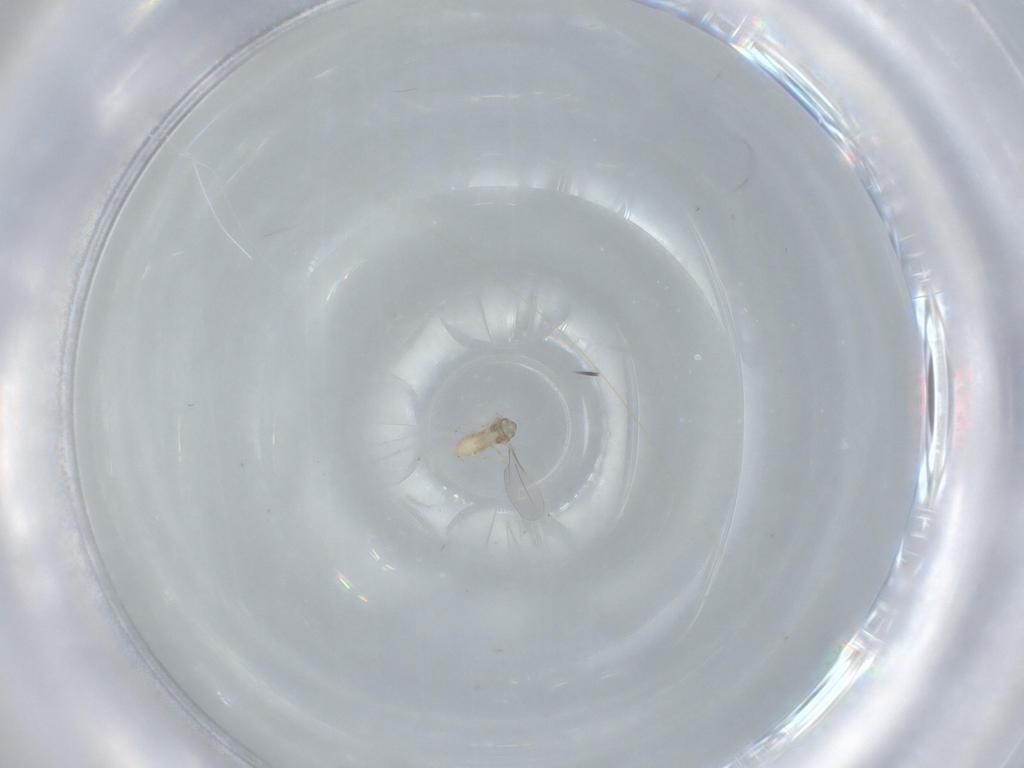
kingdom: Animalia
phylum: Arthropoda
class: Insecta
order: Diptera
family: Cecidomyiidae
